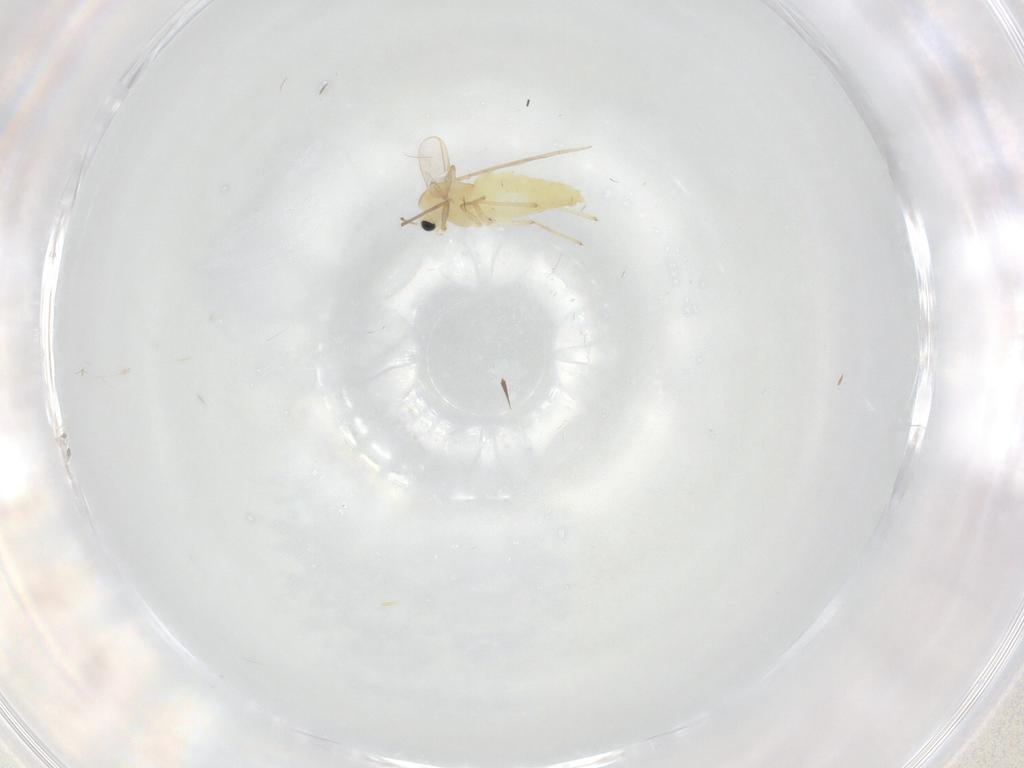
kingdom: Animalia
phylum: Arthropoda
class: Insecta
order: Diptera
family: Chironomidae
